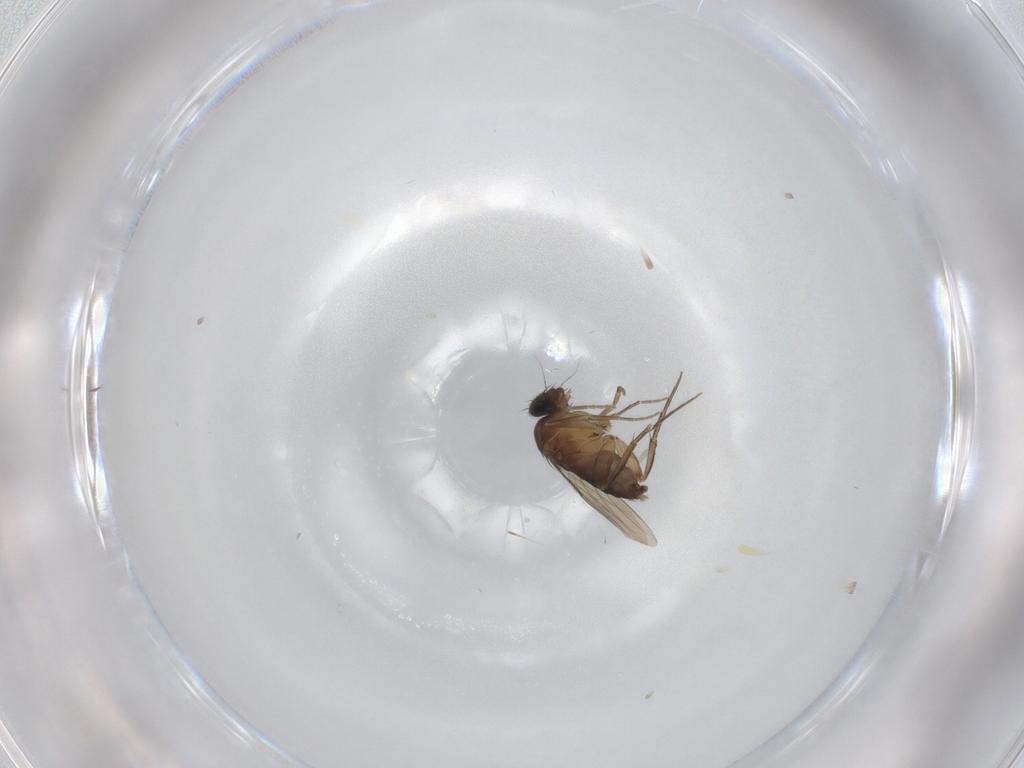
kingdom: Animalia
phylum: Arthropoda
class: Insecta
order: Diptera
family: Phoridae
